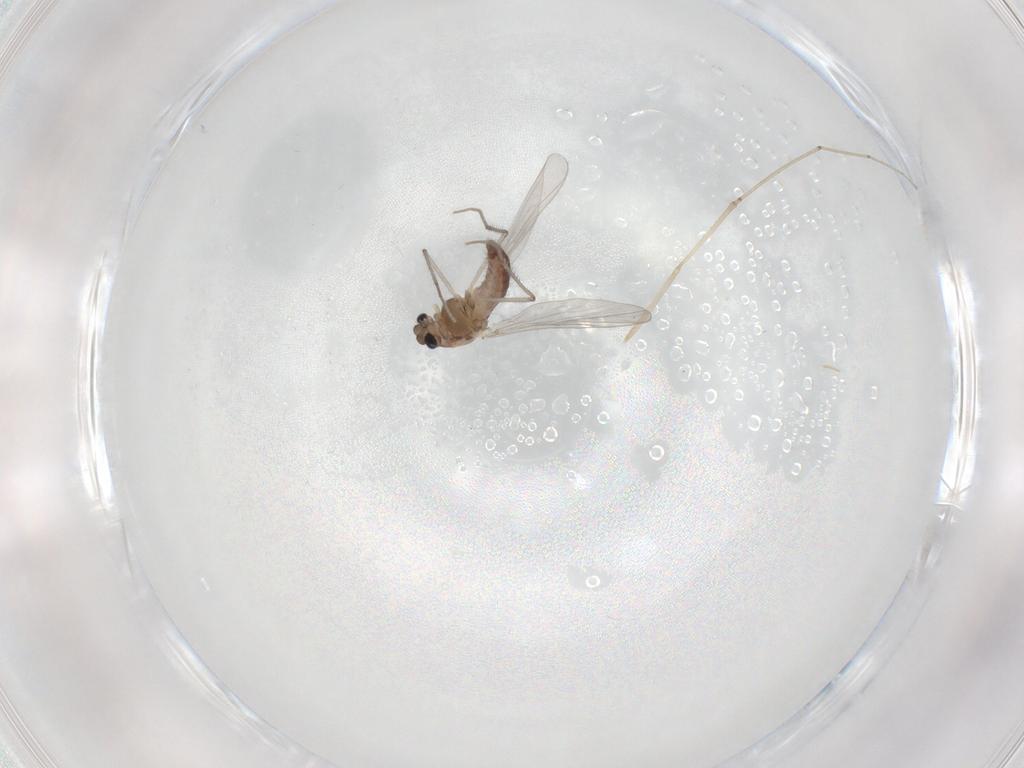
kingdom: Animalia
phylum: Arthropoda
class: Insecta
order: Diptera
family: Chironomidae
